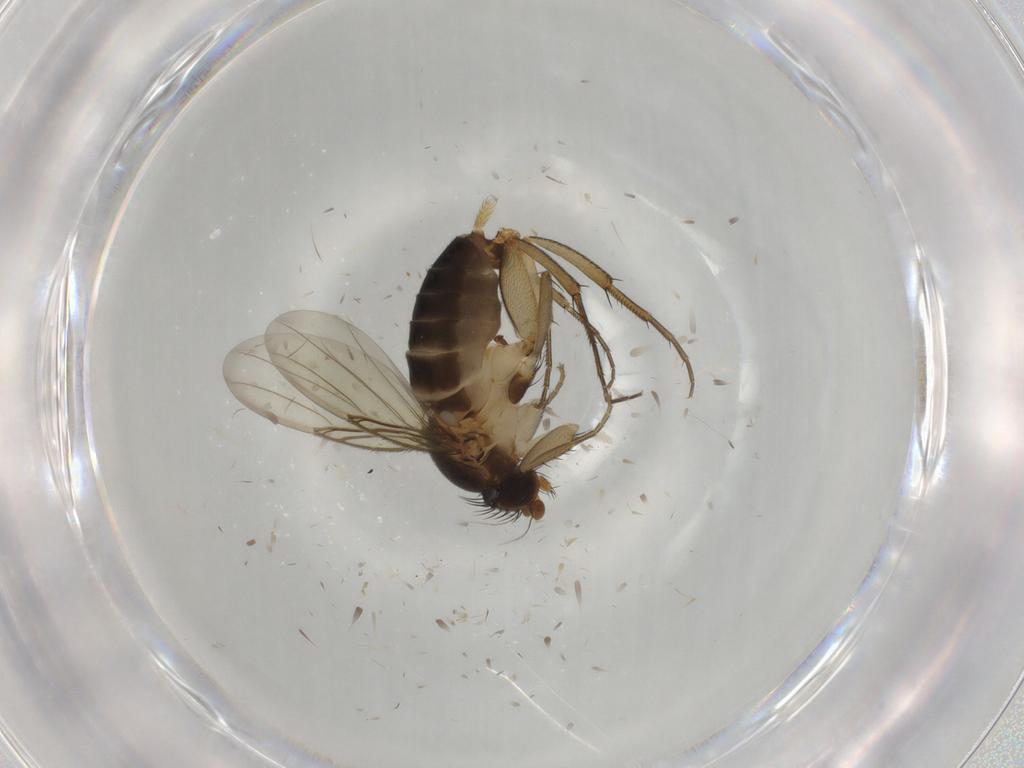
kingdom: Animalia
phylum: Arthropoda
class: Insecta
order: Diptera
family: Phoridae
